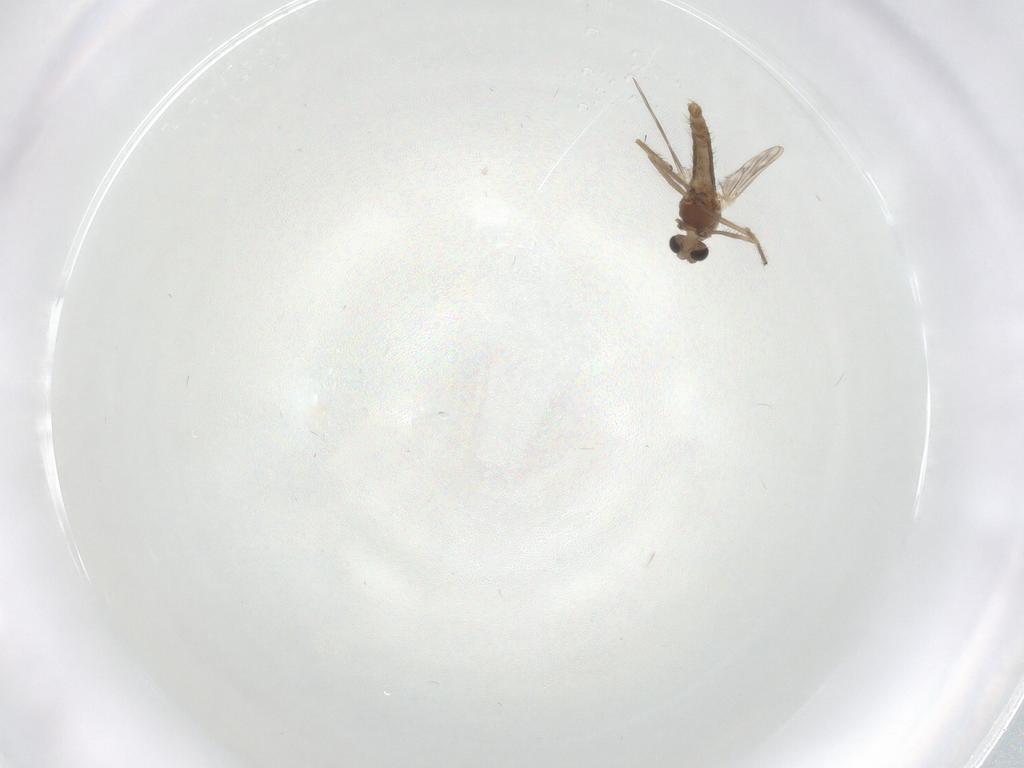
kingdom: Animalia
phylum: Arthropoda
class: Insecta
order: Diptera
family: Chironomidae
